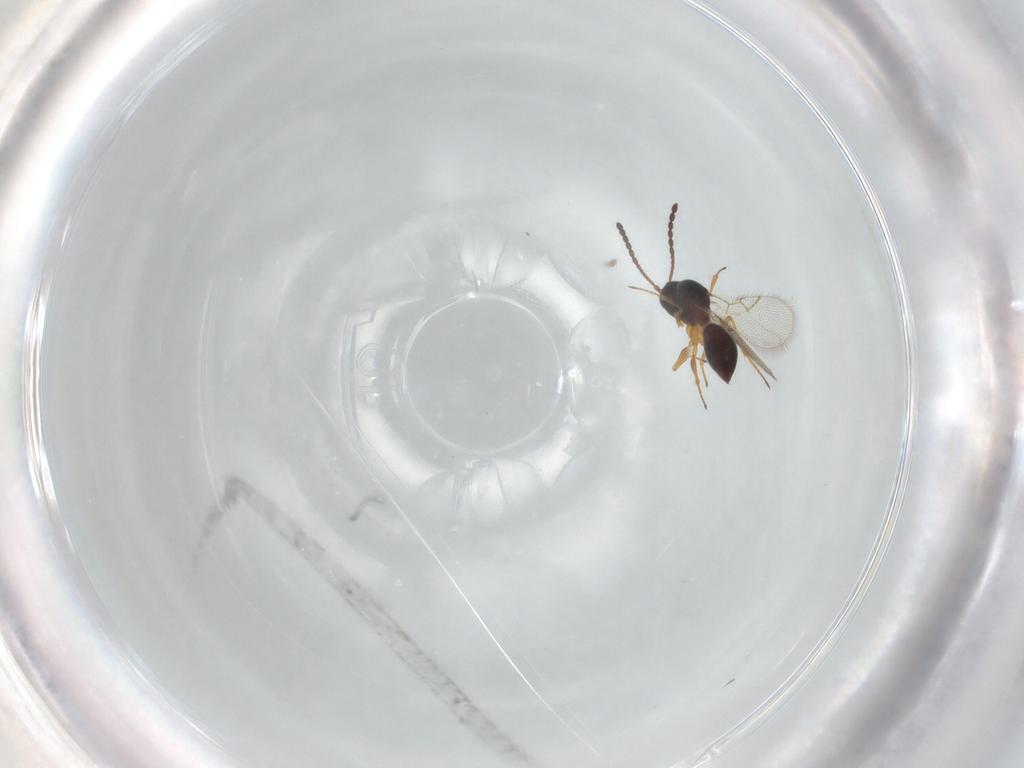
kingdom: Animalia
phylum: Arthropoda
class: Insecta
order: Hymenoptera
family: Figitidae
